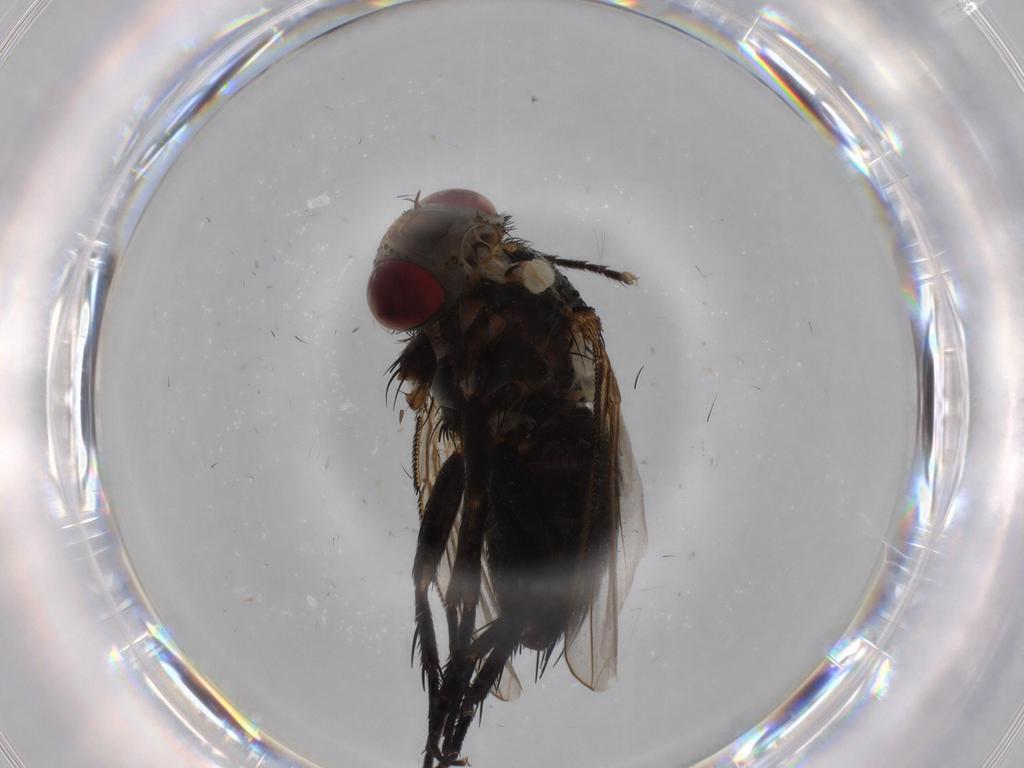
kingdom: Animalia
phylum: Arthropoda
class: Insecta
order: Diptera
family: Tachinidae
